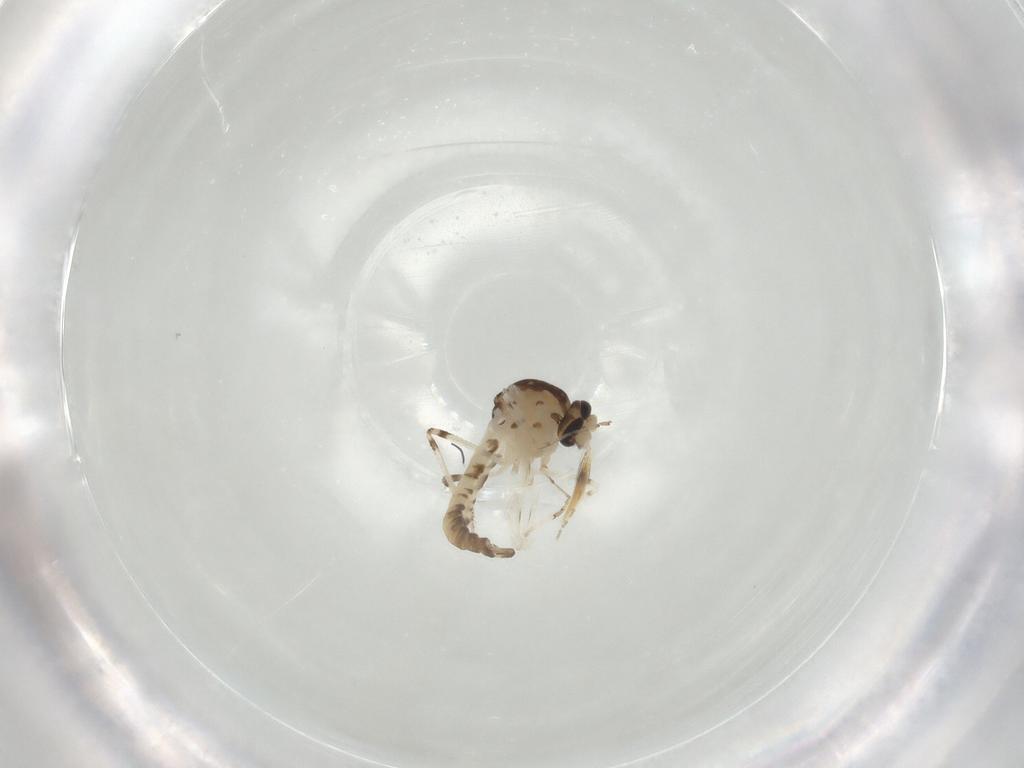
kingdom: Animalia
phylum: Arthropoda
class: Insecta
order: Diptera
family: Ceratopogonidae
